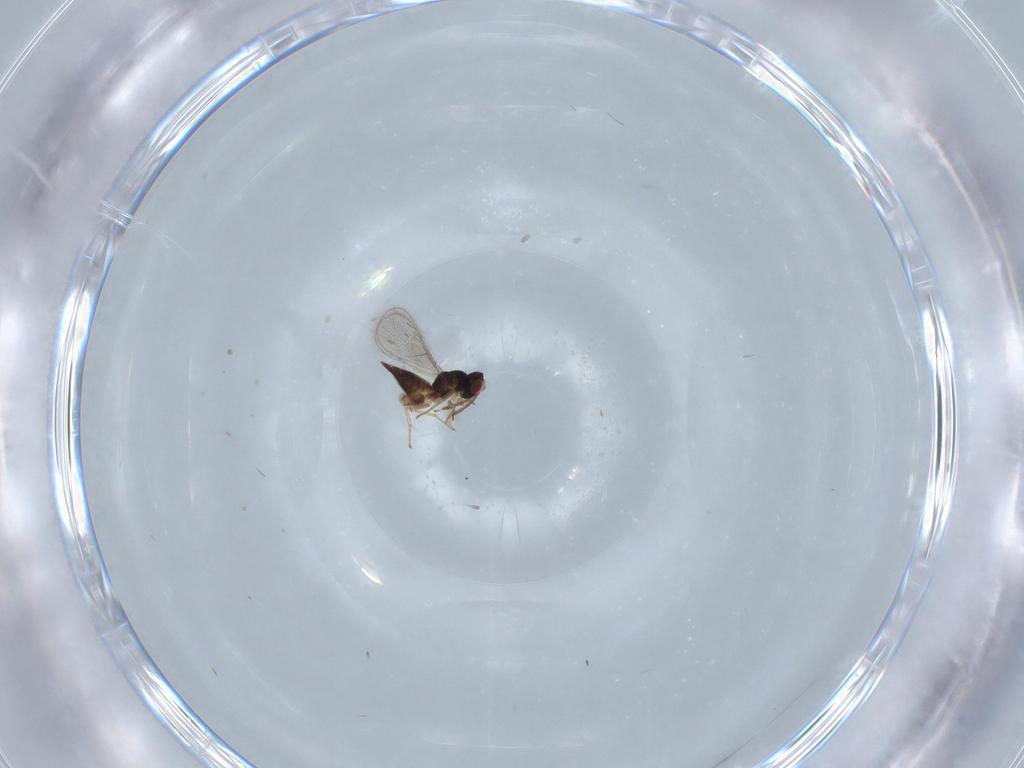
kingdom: Animalia
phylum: Arthropoda
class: Insecta
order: Hymenoptera
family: Eulophidae
